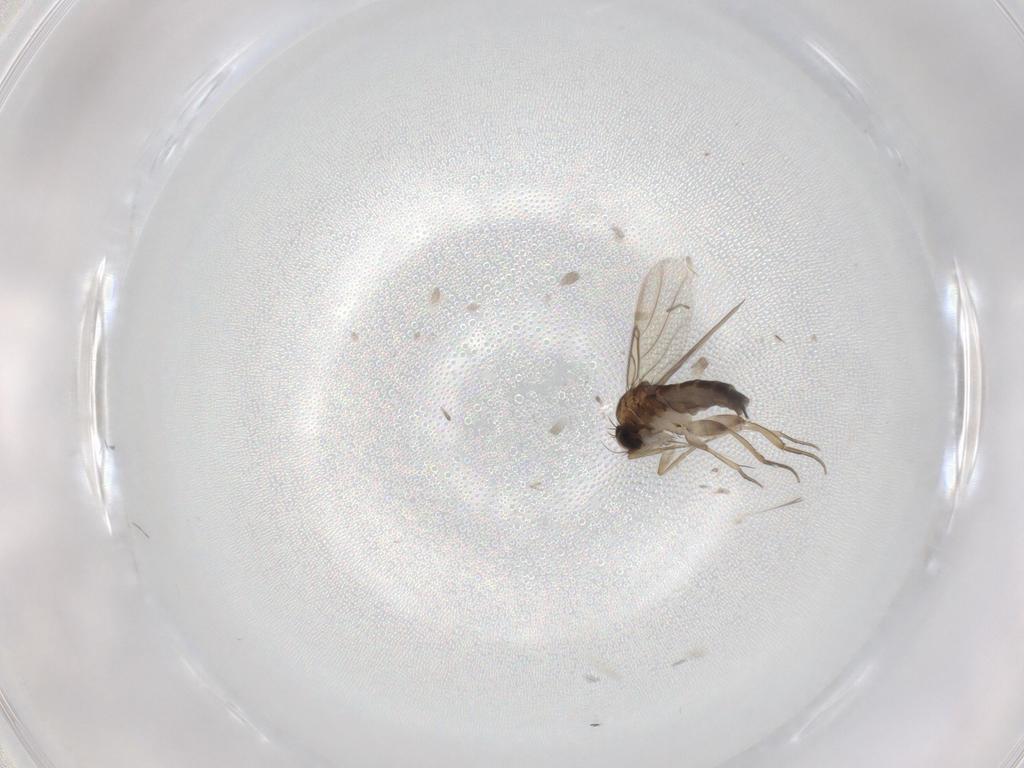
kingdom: Animalia
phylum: Arthropoda
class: Insecta
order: Diptera
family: Phoridae
